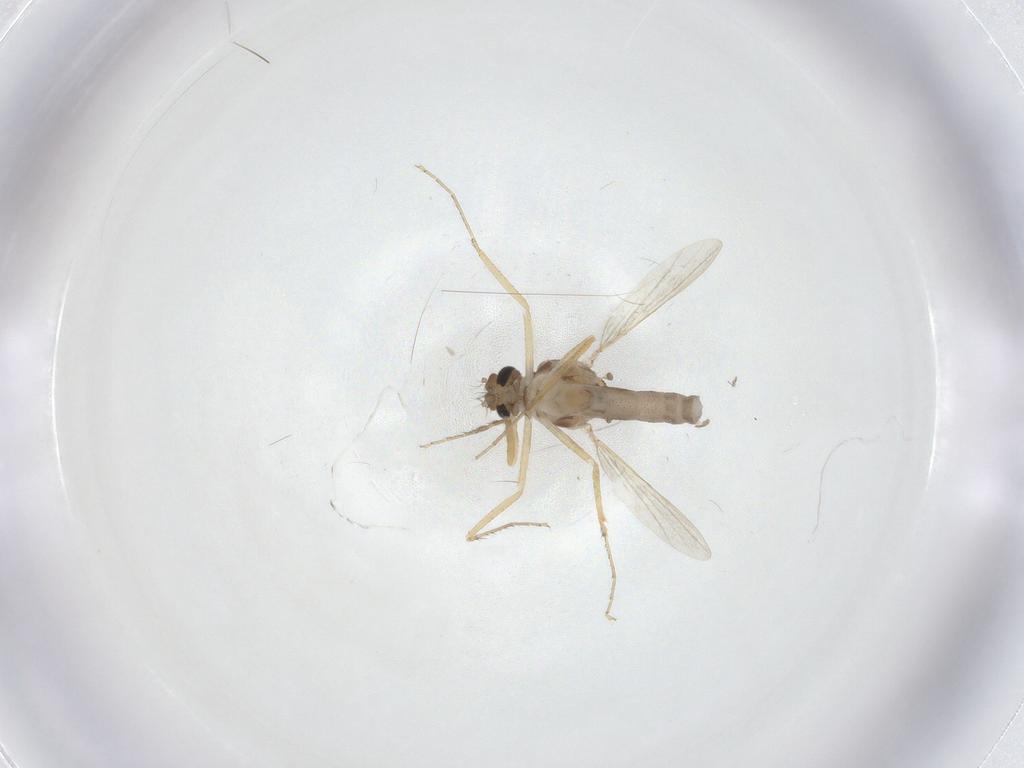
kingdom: Animalia
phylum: Arthropoda
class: Insecta
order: Diptera
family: Ceratopogonidae
